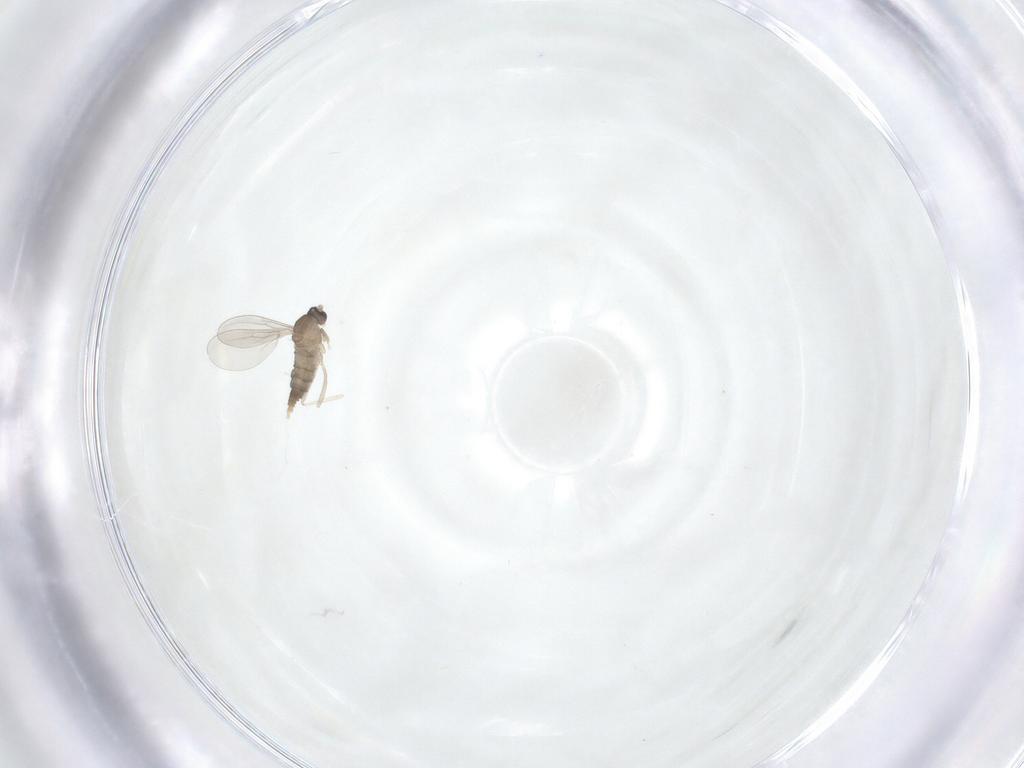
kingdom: Animalia
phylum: Arthropoda
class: Insecta
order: Diptera
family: Cecidomyiidae
